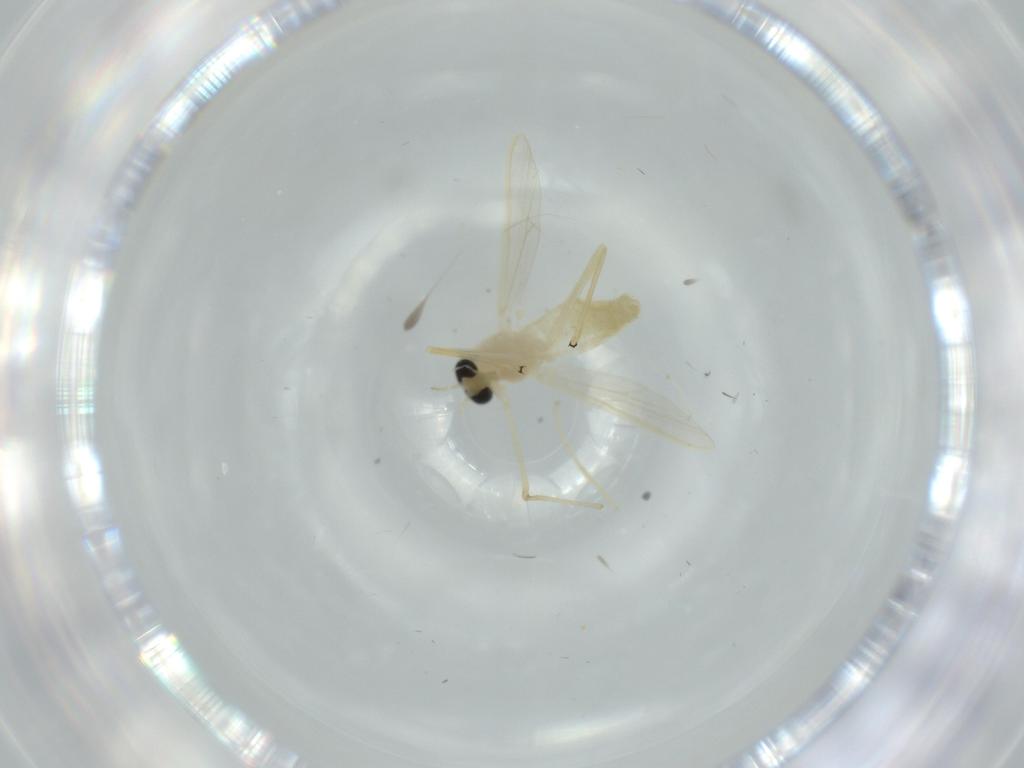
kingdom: Animalia
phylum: Arthropoda
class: Insecta
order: Diptera
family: Chironomidae
